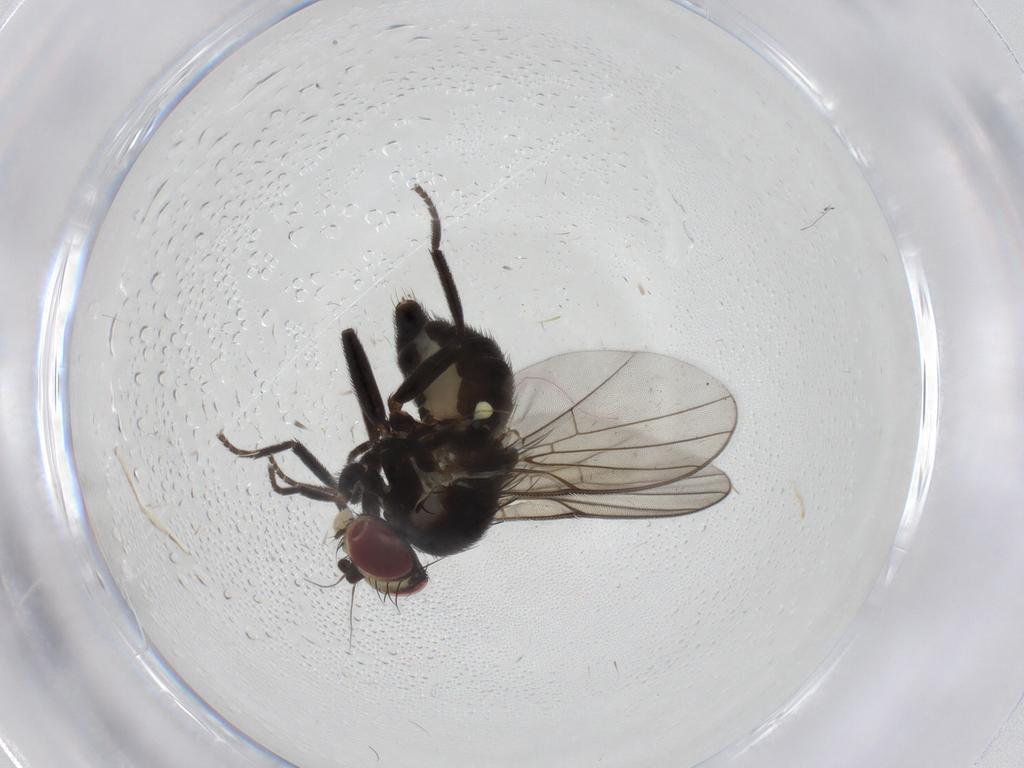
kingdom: Animalia
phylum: Arthropoda
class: Insecta
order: Diptera
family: Agromyzidae
